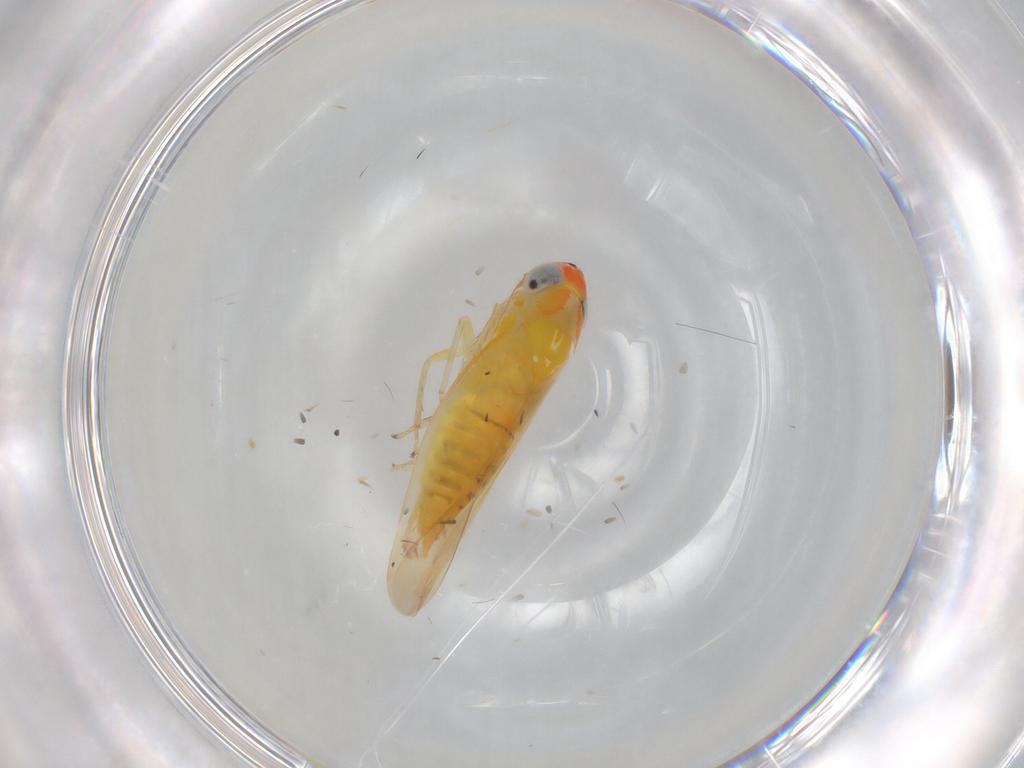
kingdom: Animalia
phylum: Arthropoda
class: Insecta
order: Hemiptera
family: Cicadellidae
